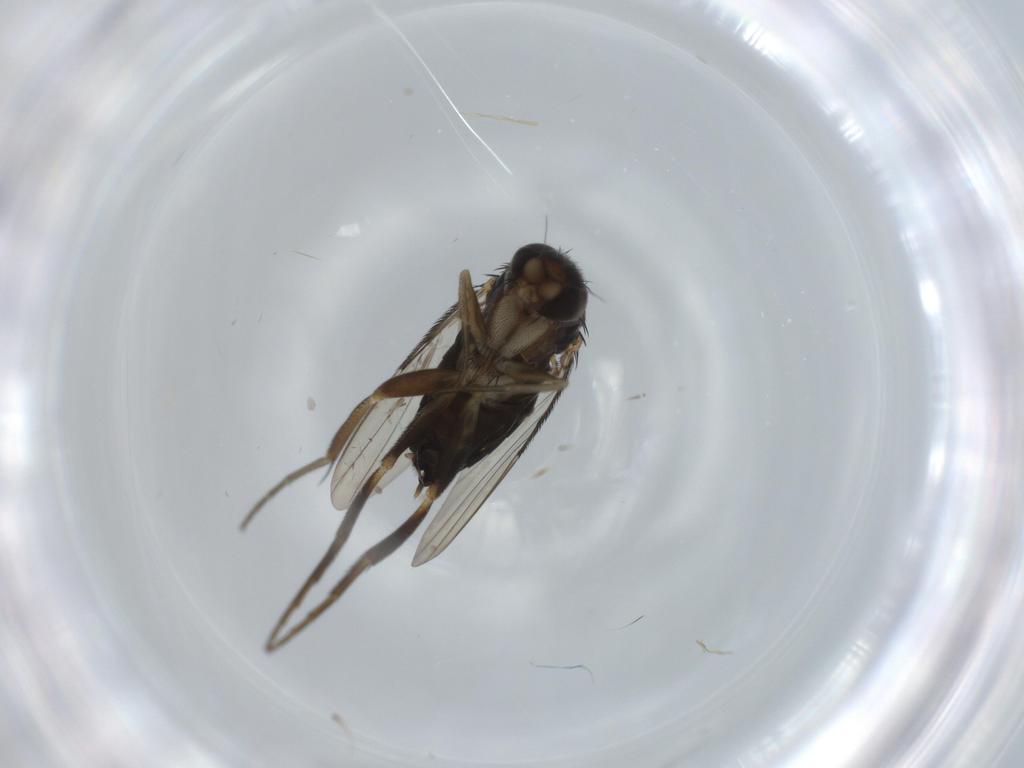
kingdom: Animalia
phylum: Arthropoda
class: Insecta
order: Diptera
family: Phoridae
